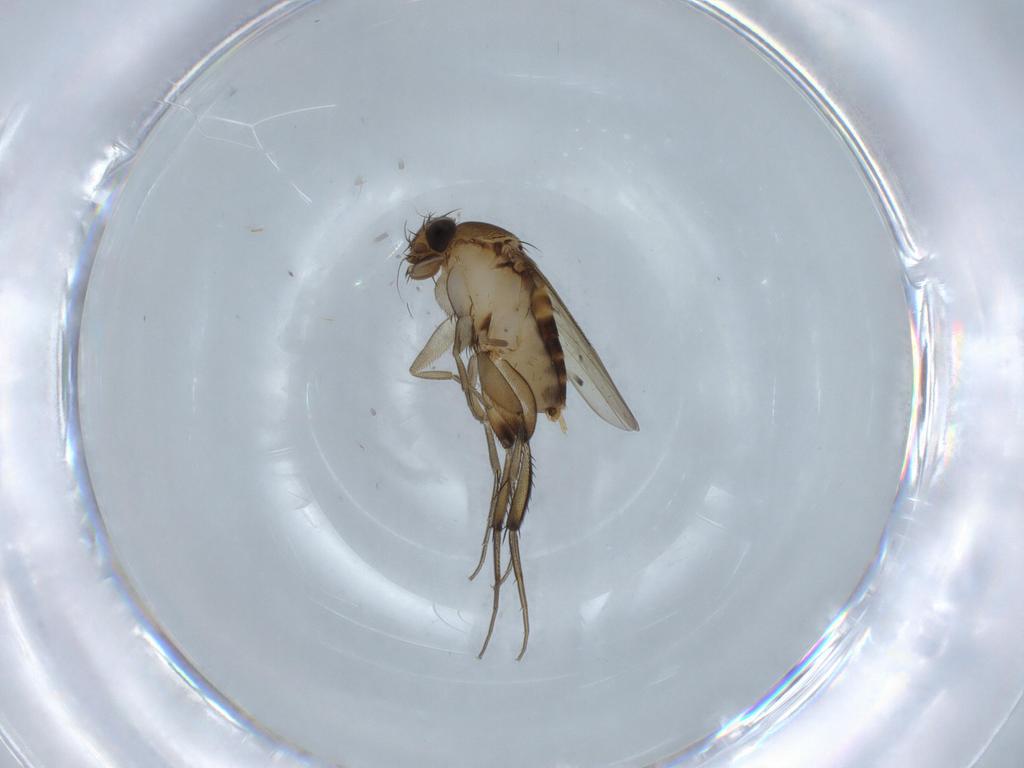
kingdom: Animalia
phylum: Arthropoda
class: Insecta
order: Diptera
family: Phoridae
